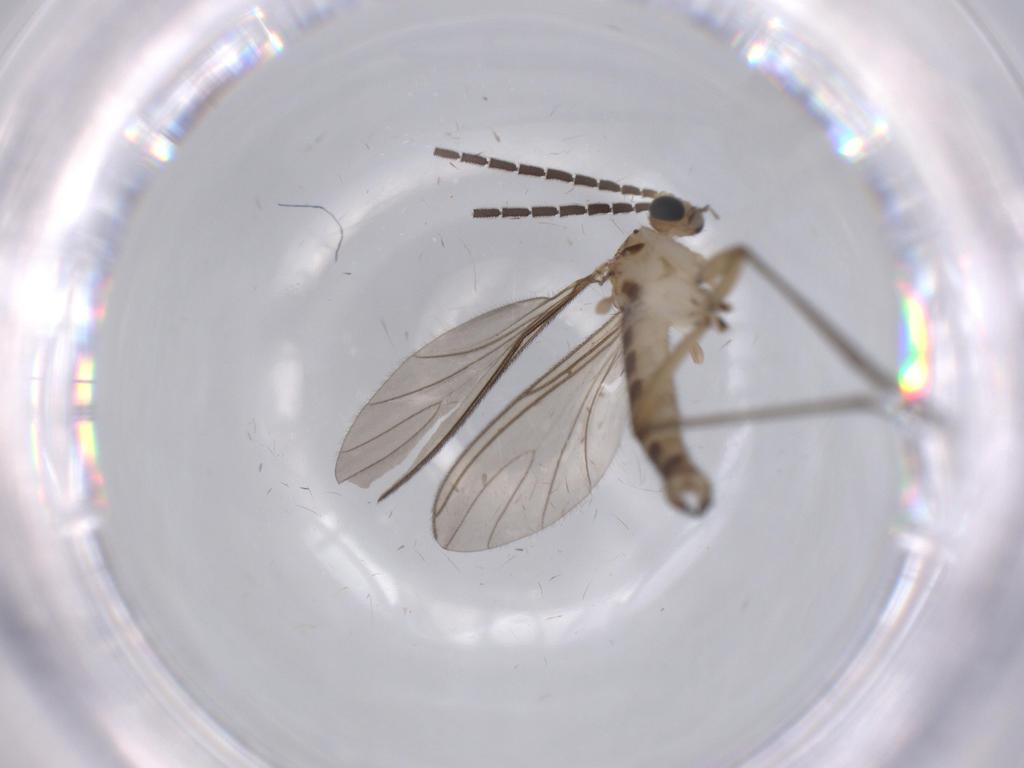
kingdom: Animalia
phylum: Arthropoda
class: Insecta
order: Diptera
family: Sciaridae
